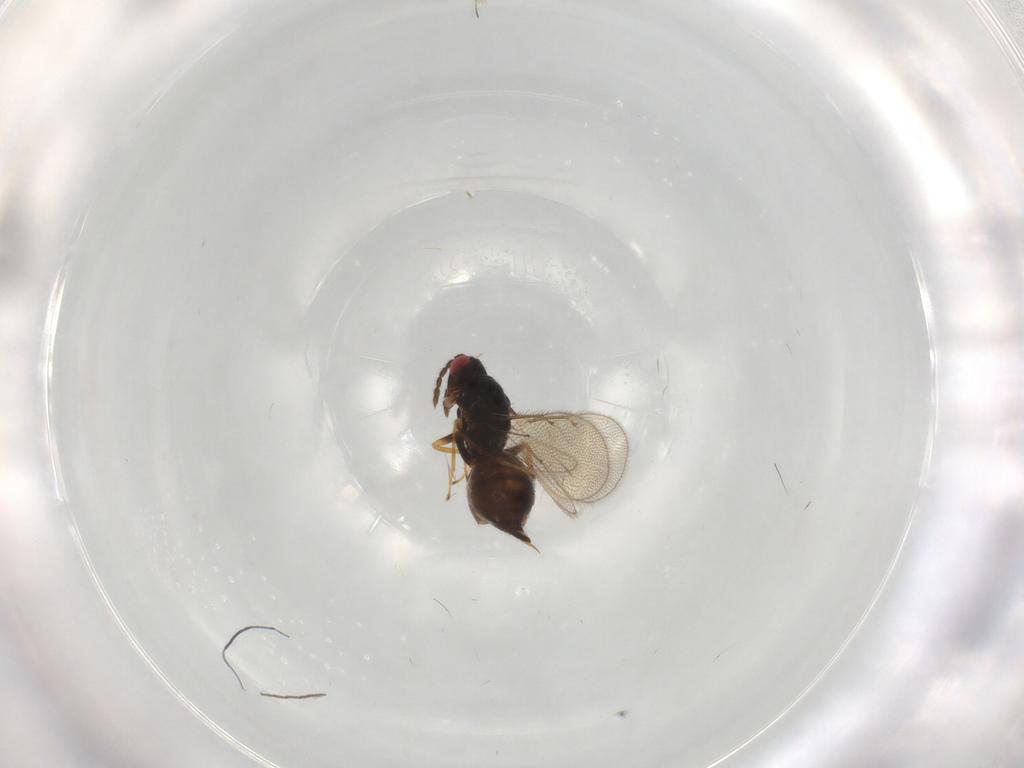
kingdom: Animalia
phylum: Arthropoda
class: Insecta
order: Hymenoptera
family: Eulophidae
